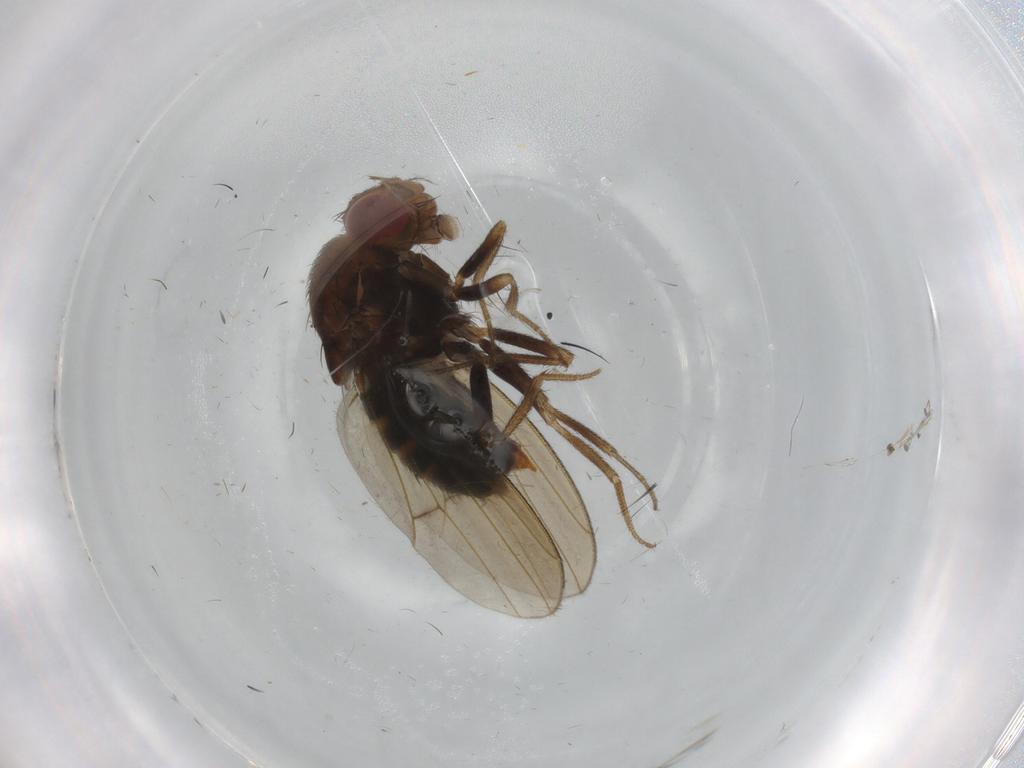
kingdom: Animalia
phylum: Arthropoda
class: Insecta
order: Diptera
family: Drosophilidae
